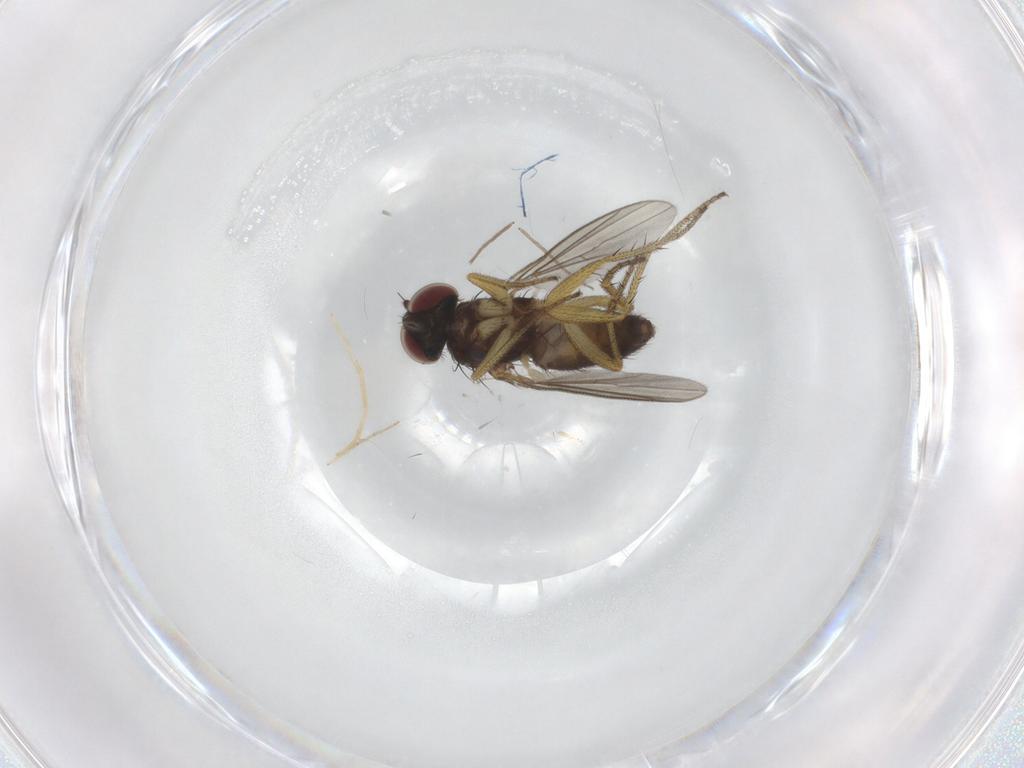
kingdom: Animalia
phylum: Arthropoda
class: Insecta
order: Diptera
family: Dolichopodidae
